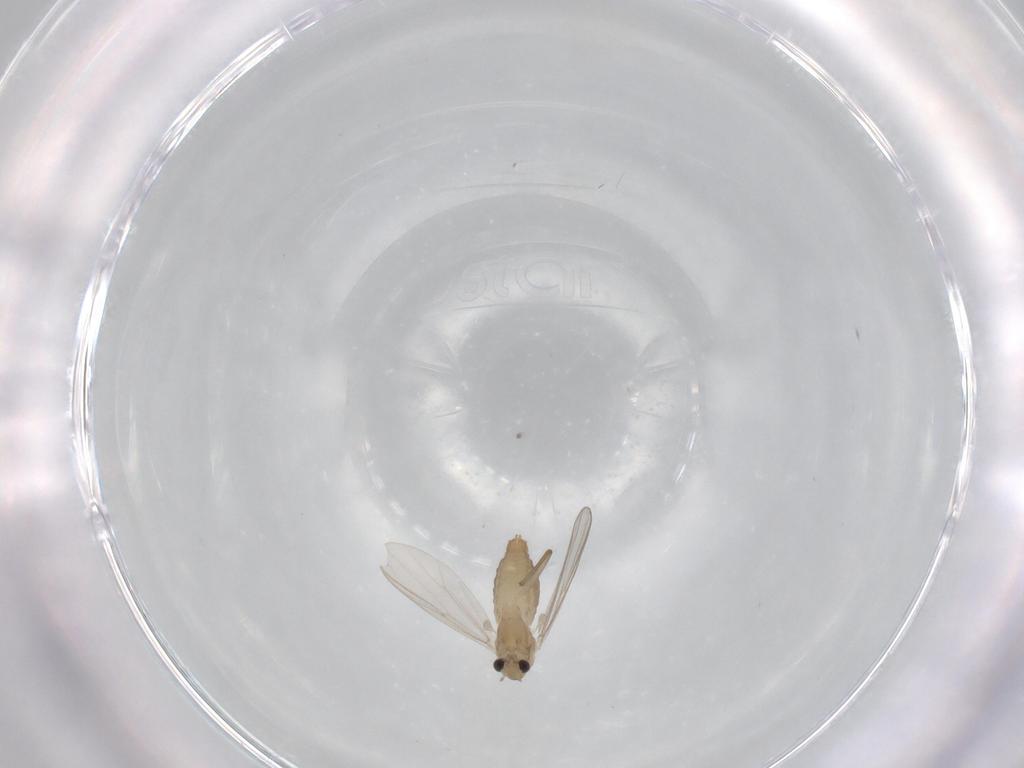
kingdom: Animalia
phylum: Arthropoda
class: Insecta
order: Diptera
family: Chironomidae
